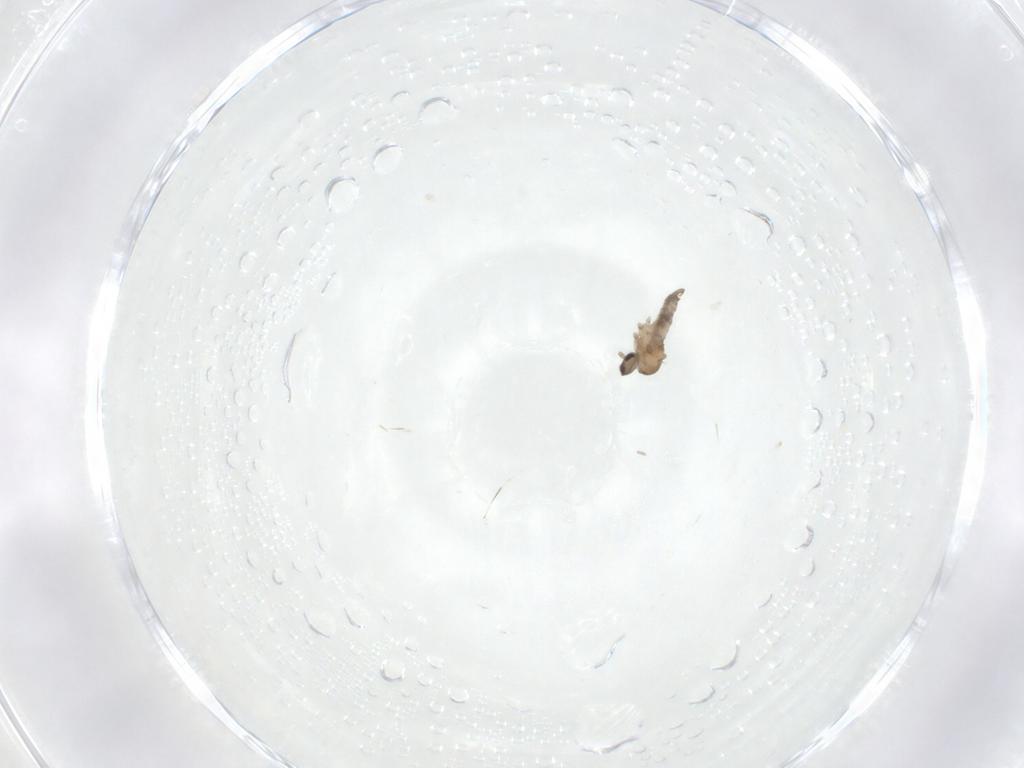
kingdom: Animalia
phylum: Arthropoda
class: Insecta
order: Diptera
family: Cecidomyiidae
